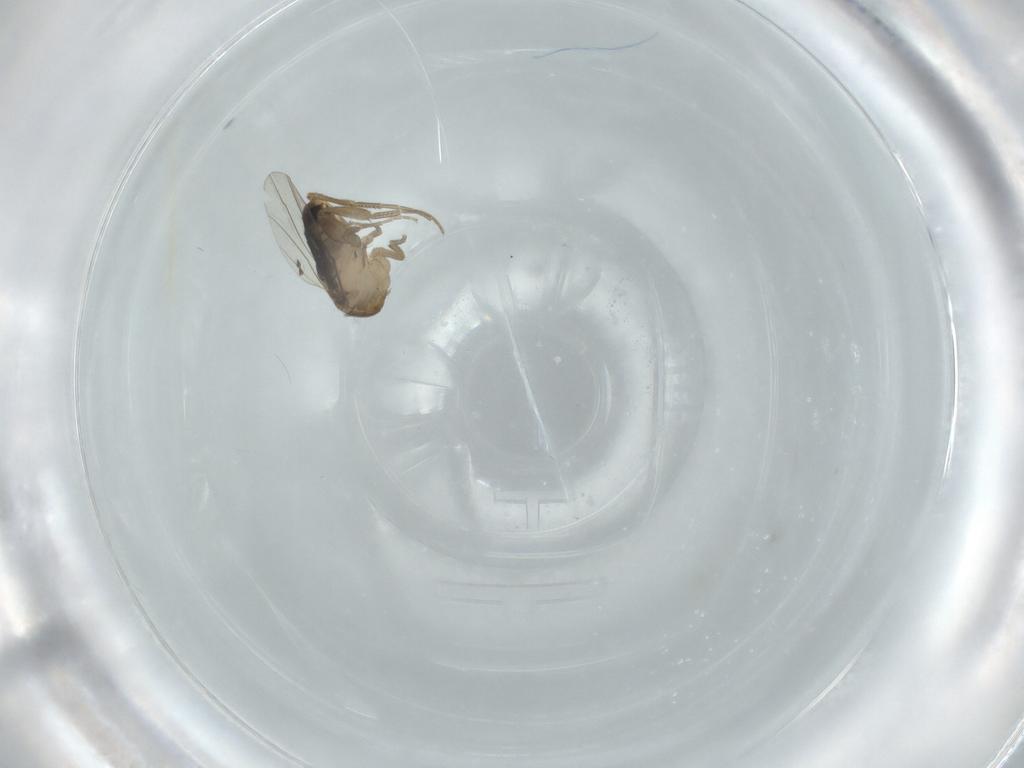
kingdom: Animalia
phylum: Arthropoda
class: Insecta
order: Diptera
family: Phoridae
